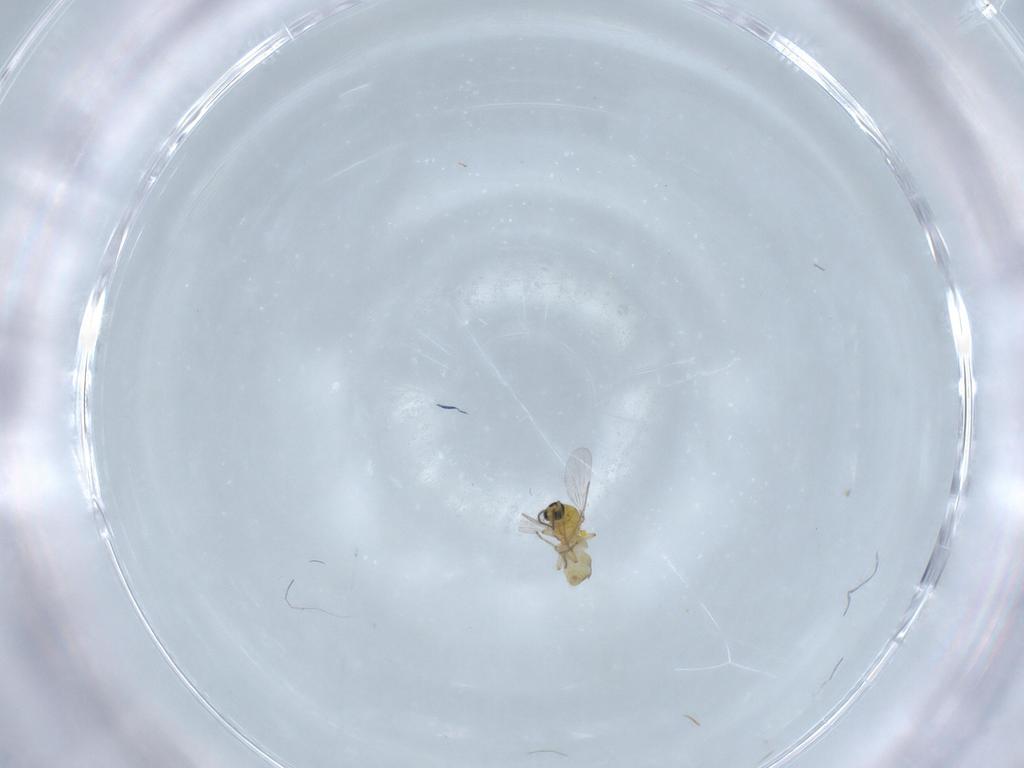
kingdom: Animalia
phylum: Arthropoda
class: Insecta
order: Diptera
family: Ceratopogonidae
